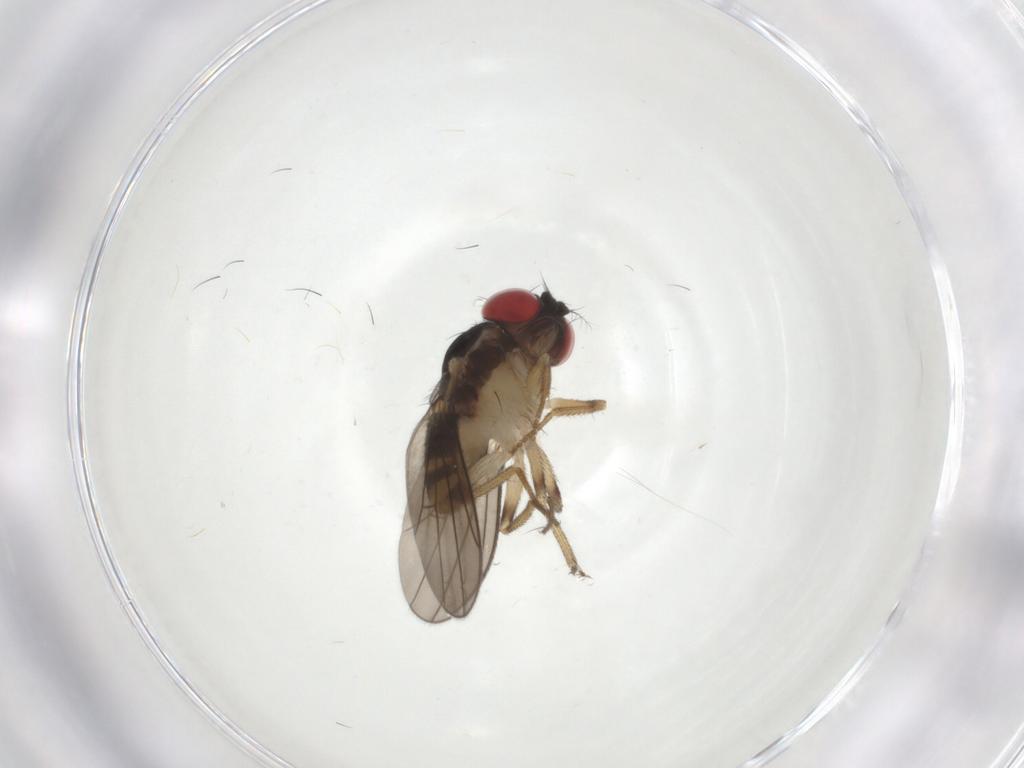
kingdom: Animalia
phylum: Arthropoda
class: Insecta
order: Diptera
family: Drosophilidae
